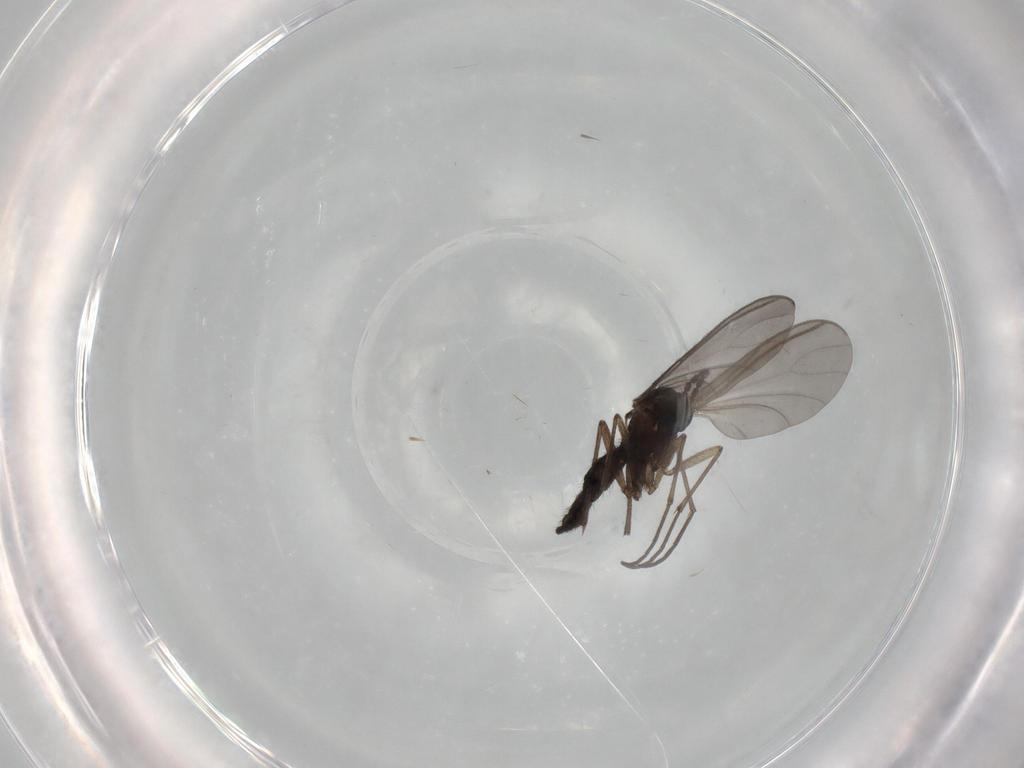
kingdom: Animalia
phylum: Arthropoda
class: Insecta
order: Diptera
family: Sciaridae
